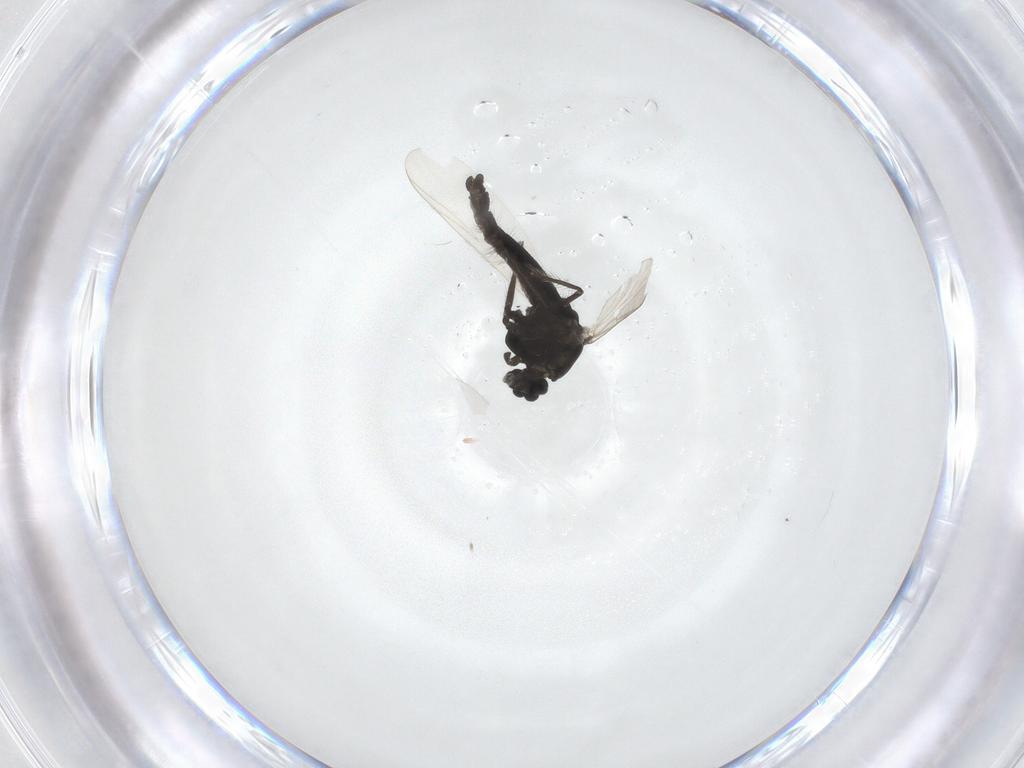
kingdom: Animalia
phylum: Arthropoda
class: Insecta
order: Diptera
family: Chironomidae
